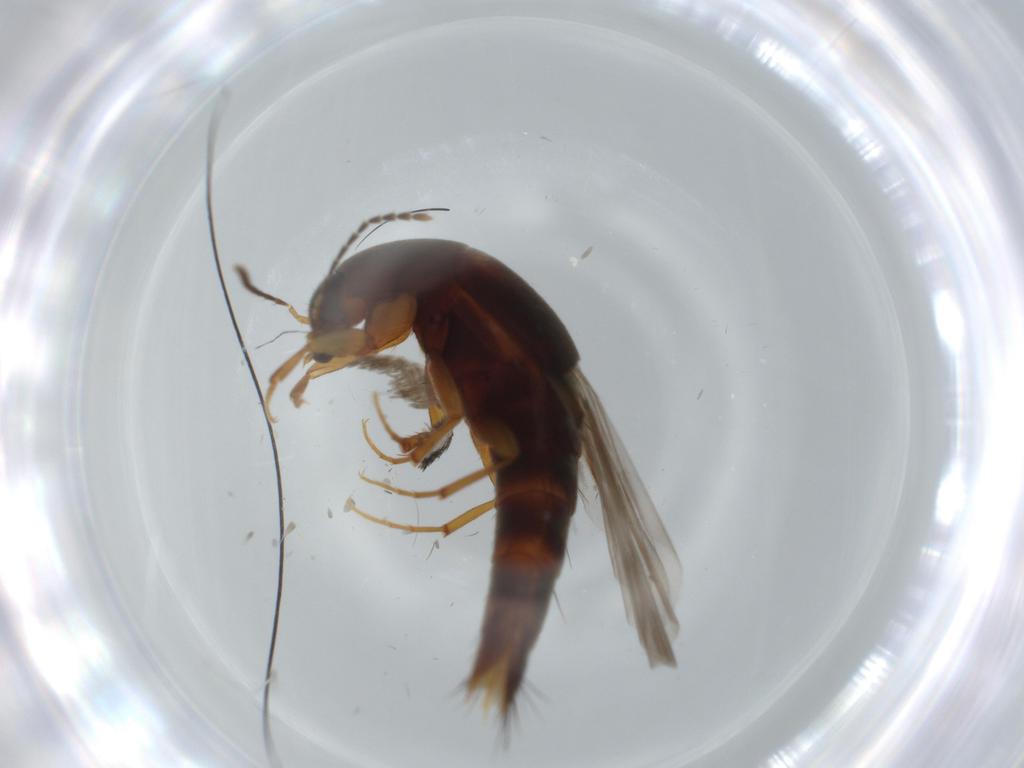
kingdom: Animalia
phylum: Arthropoda
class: Insecta
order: Coleoptera
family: Staphylinidae
